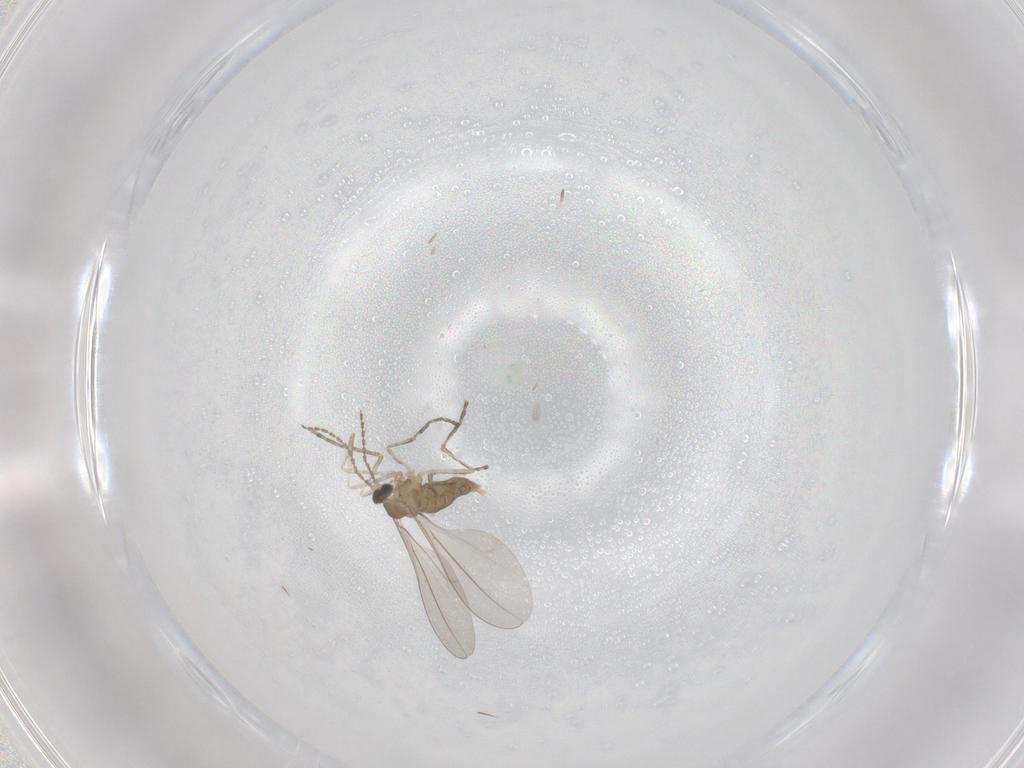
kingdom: Animalia
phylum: Arthropoda
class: Insecta
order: Diptera
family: Cecidomyiidae
